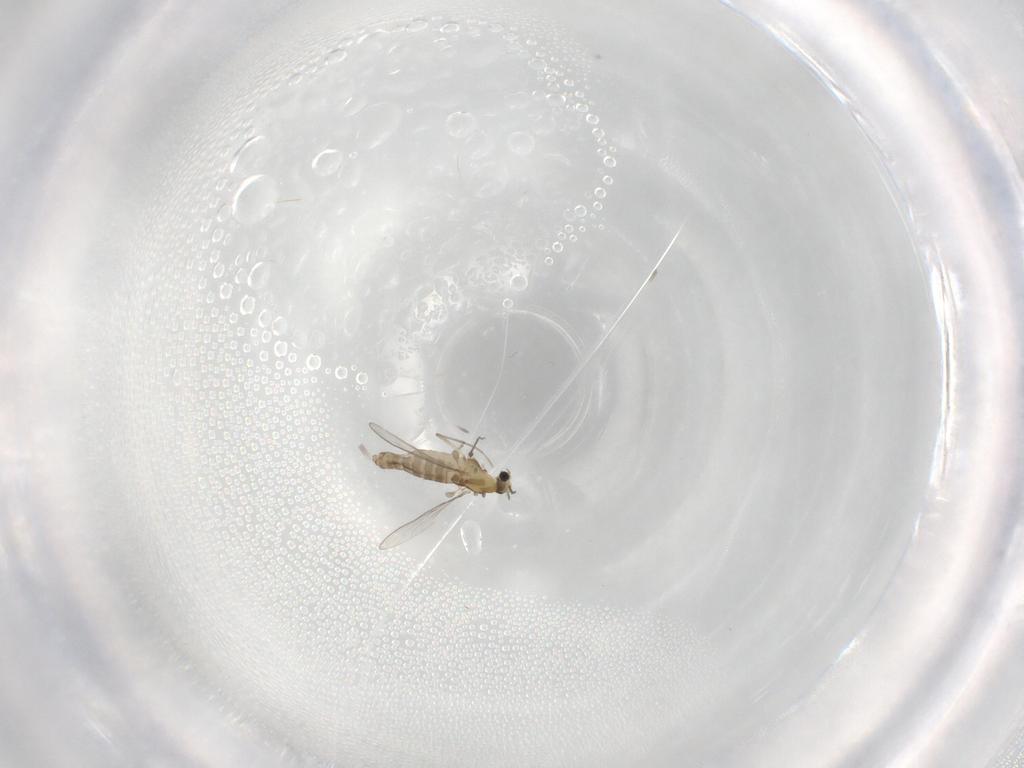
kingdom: Animalia
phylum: Arthropoda
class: Insecta
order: Diptera
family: Chironomidae
